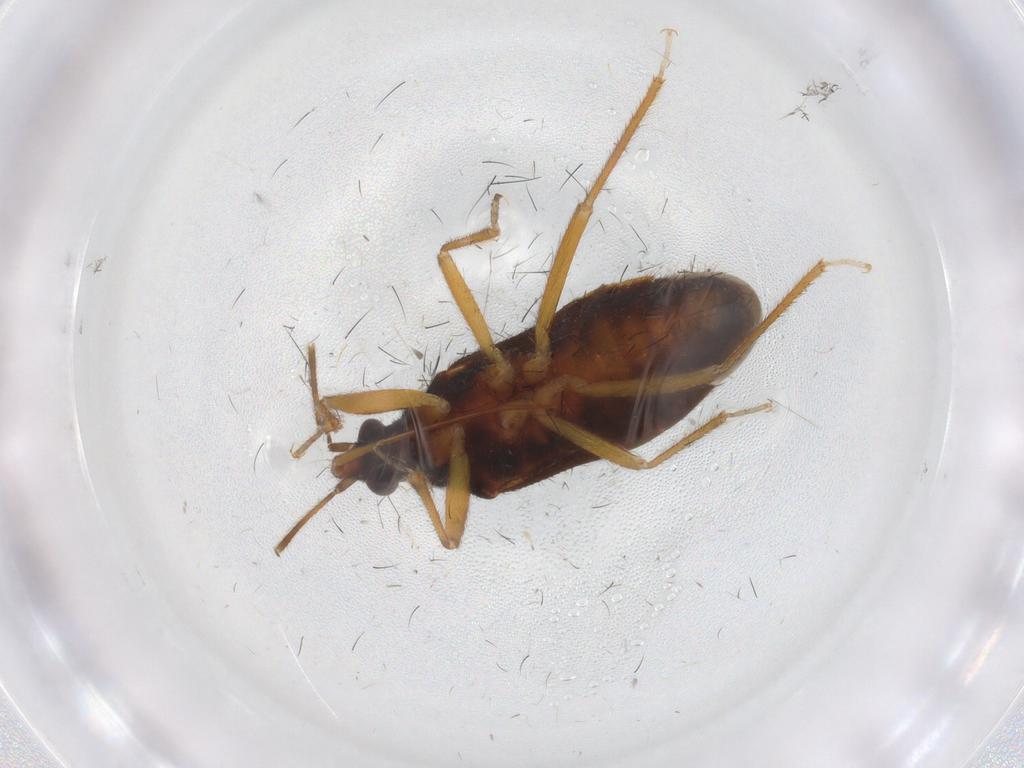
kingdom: Animalia
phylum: Arthropoda
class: Insecta
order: Hemiptera
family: Anthocoridae
